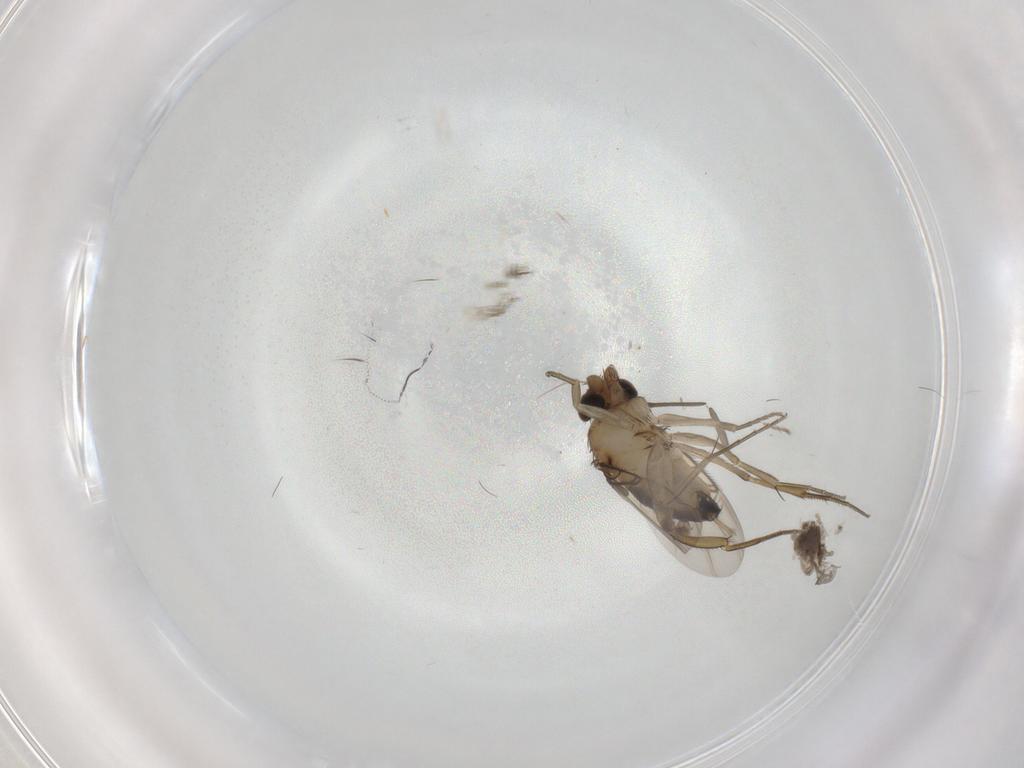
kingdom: Animalia
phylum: Arthropoda
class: Insecta
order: Diptera
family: Phoridae
